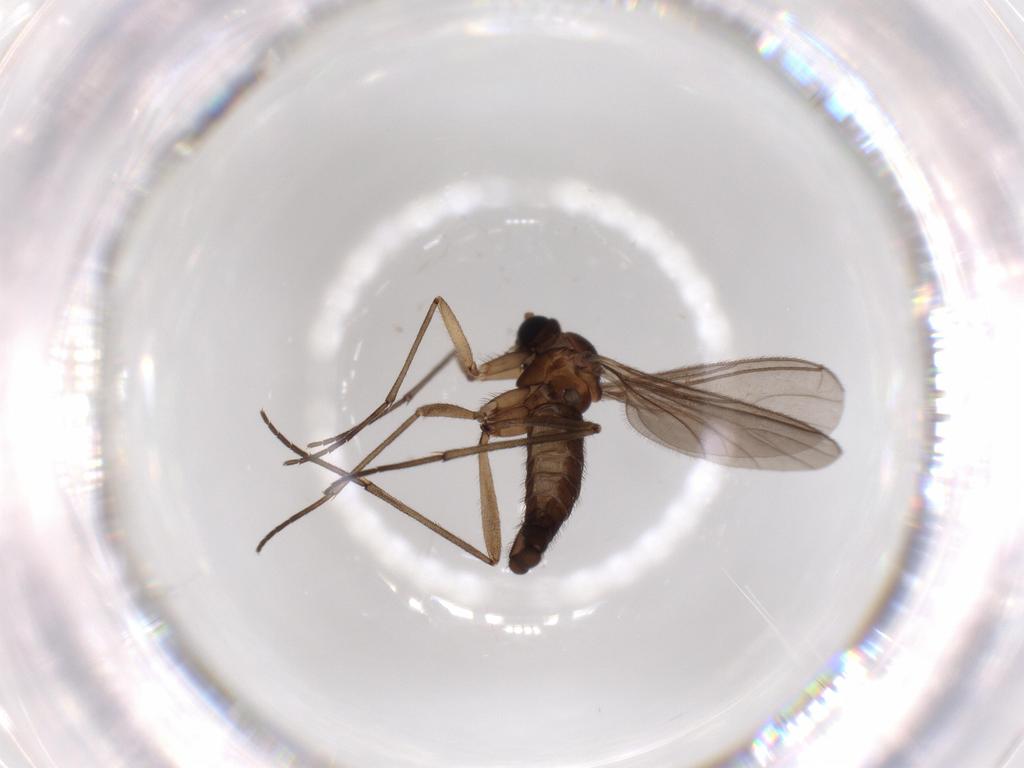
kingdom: Animalia
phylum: Arthropoda
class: Insecta
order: Diptera
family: Sciaridae
